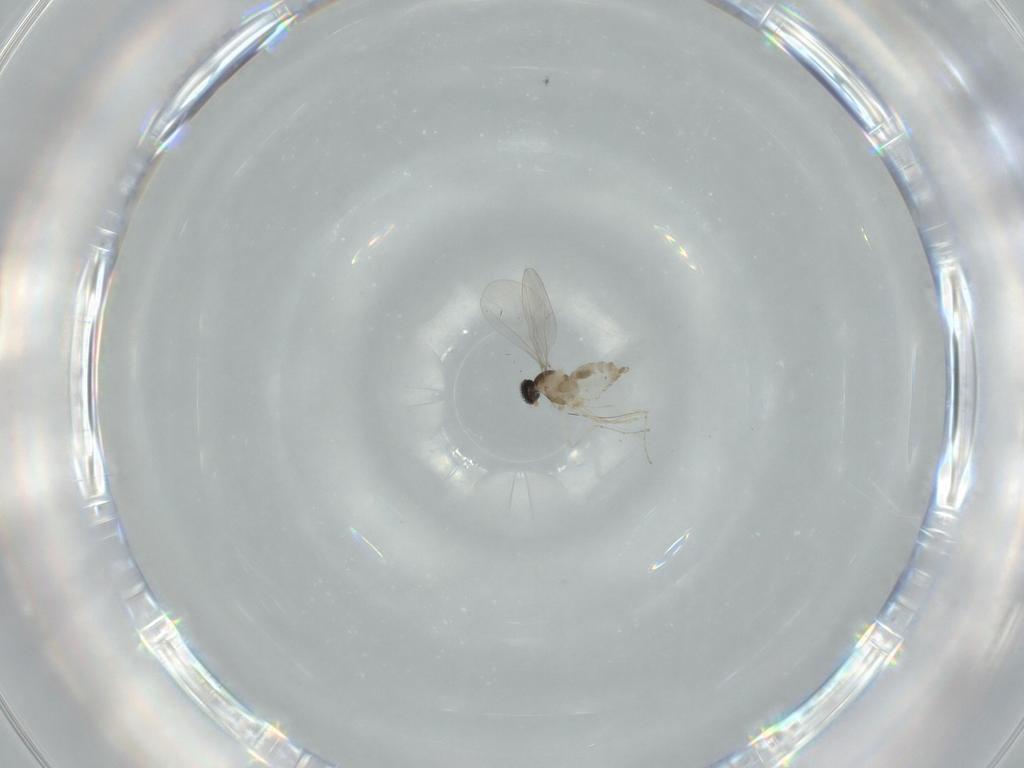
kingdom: Animalia
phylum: Arthropoda
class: Insecta
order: Diptera
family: Cecidomyiidae
